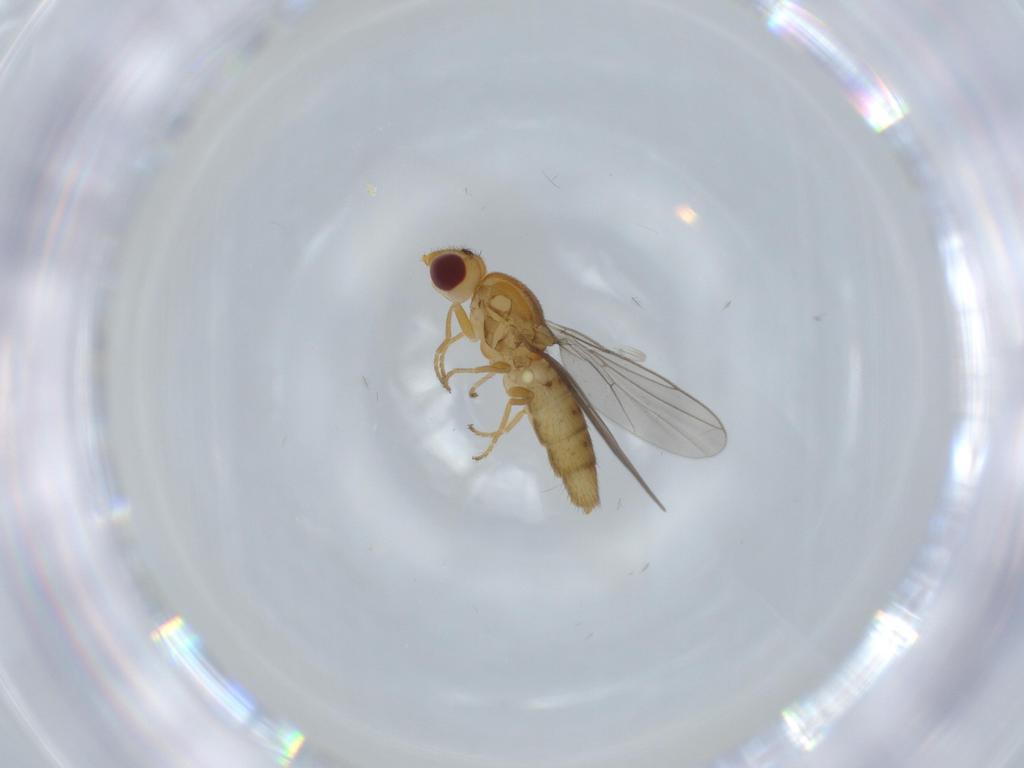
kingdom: Animalia
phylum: Arthropoda
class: Insecta
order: Diptera
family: Chloropidae
